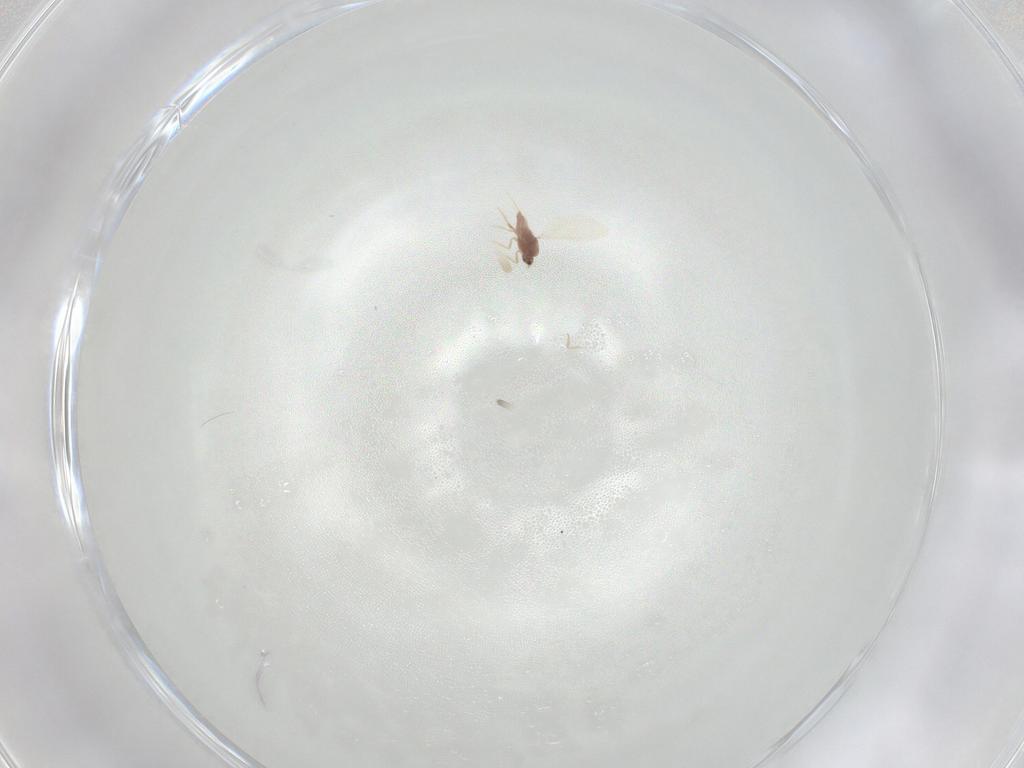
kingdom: Animalia
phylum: Arthropoda
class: Insecta
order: Hemiptera
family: Diaspididae
